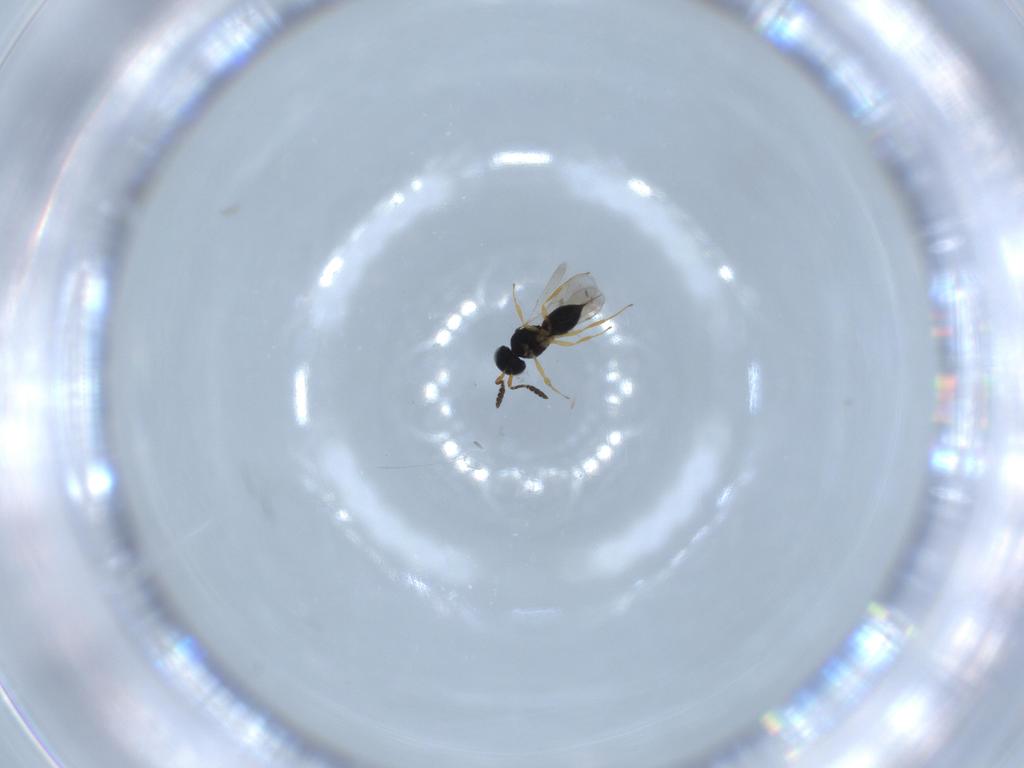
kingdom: Animalia
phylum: Arthropoda
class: Insecta
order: Hymenoptera
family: Scelionidae
